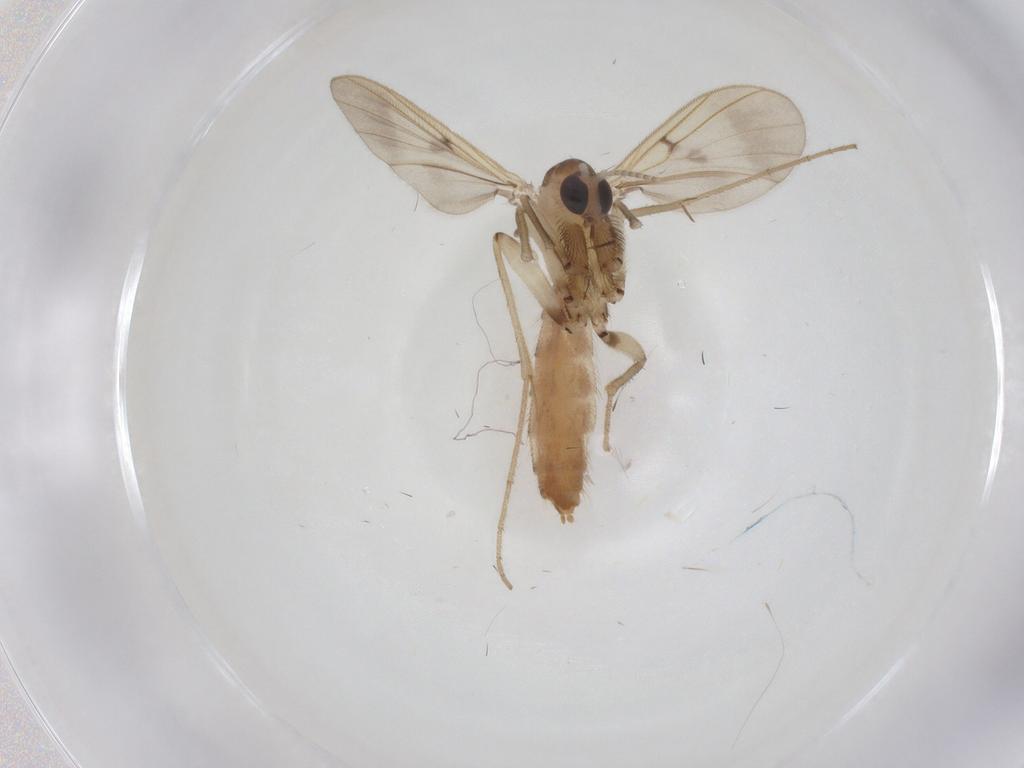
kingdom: Animalia
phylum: Arthropoda
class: Insecta
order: Diptera
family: Mycetophilidae
